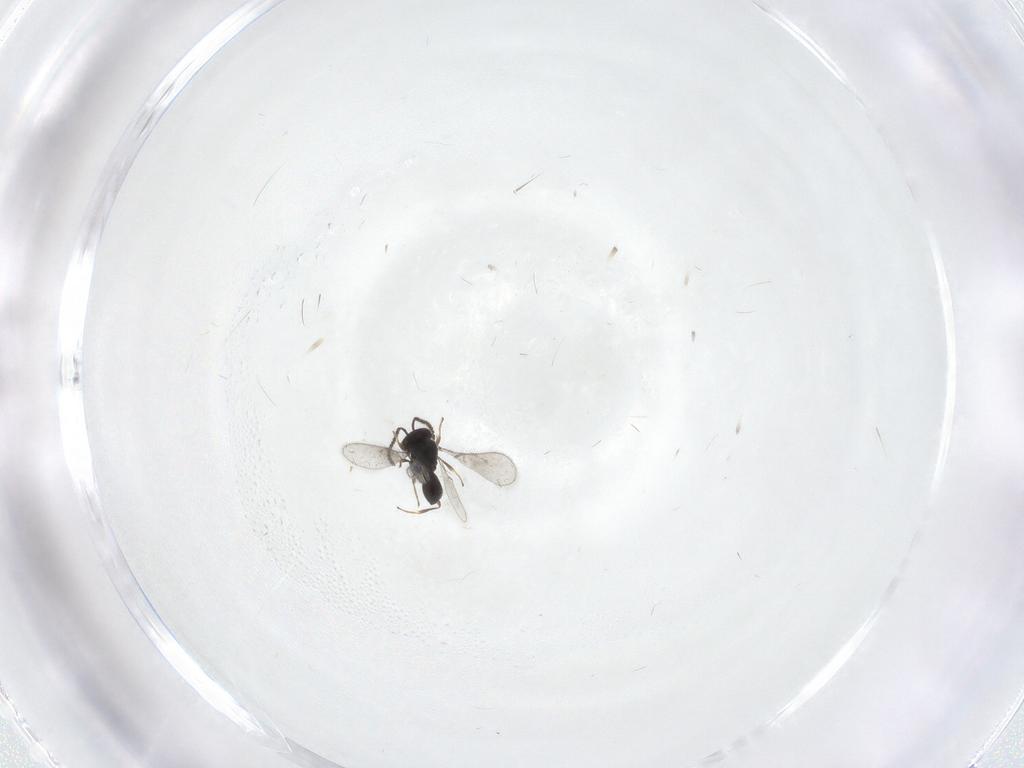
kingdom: Animalia
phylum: Arthropoda
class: Insecta
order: Hymenoptera
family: Scelionidae
